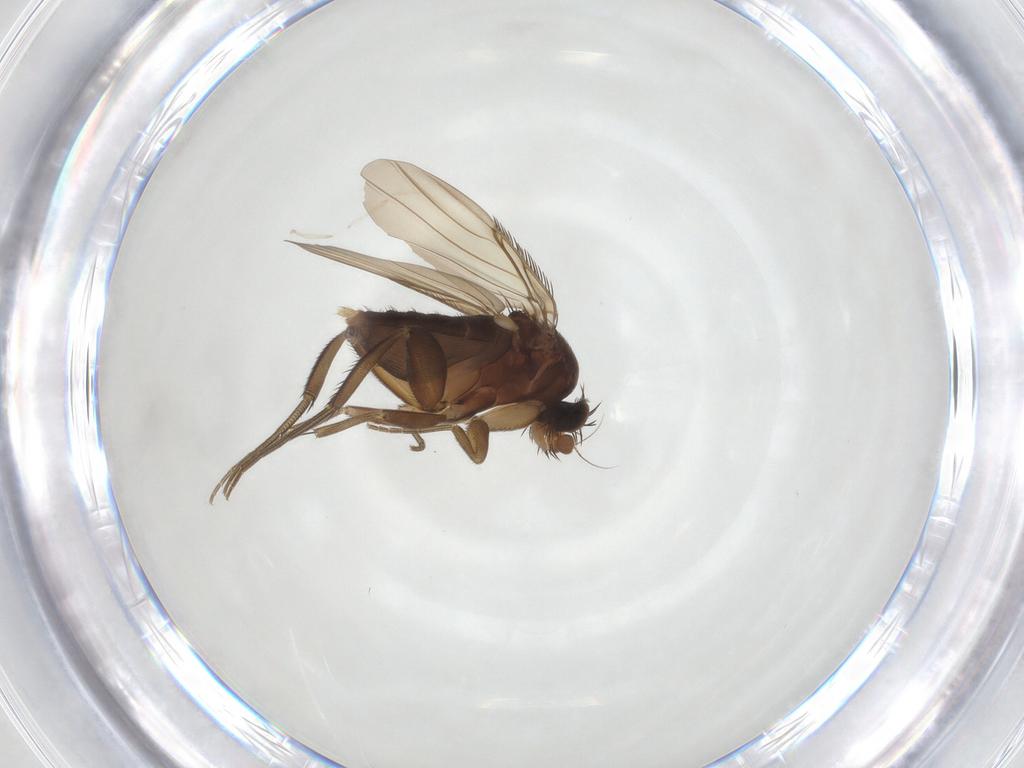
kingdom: Animalia
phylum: Arthropoda
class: Insecta
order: Diptera
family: Phoridae
